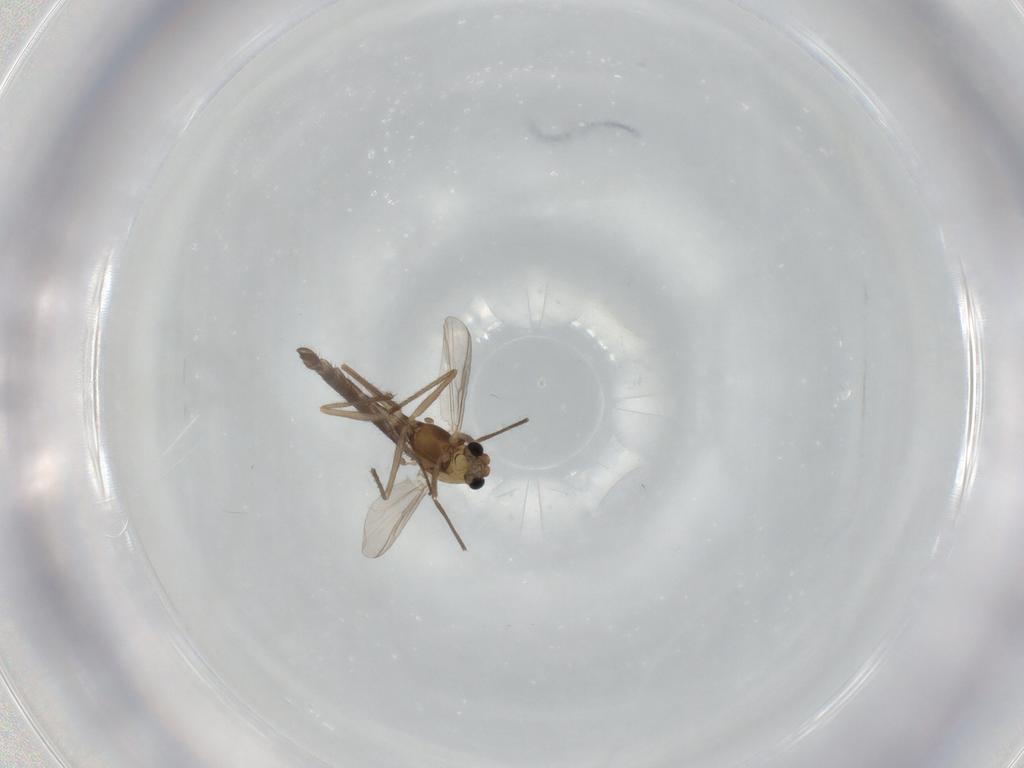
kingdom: Animalia
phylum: Arthropoda
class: Insecta
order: Diptera
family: Chironomidae
